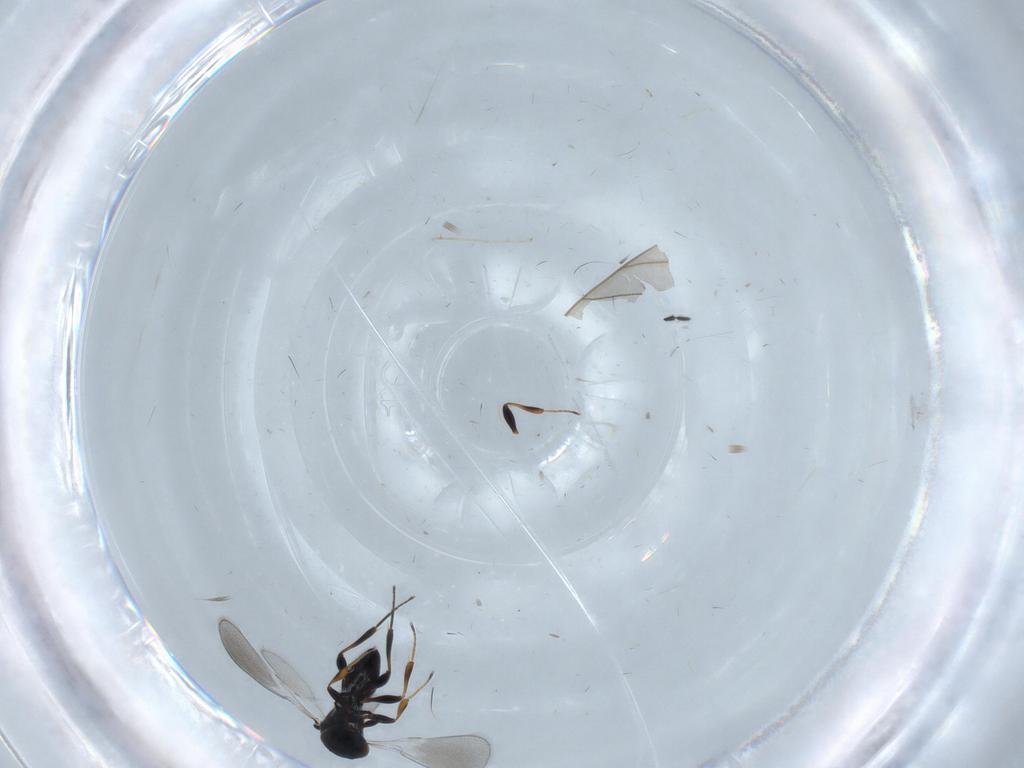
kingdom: Animalia
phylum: Arthropoda
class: Insecta
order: Hymenoptera
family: Platygastridae
